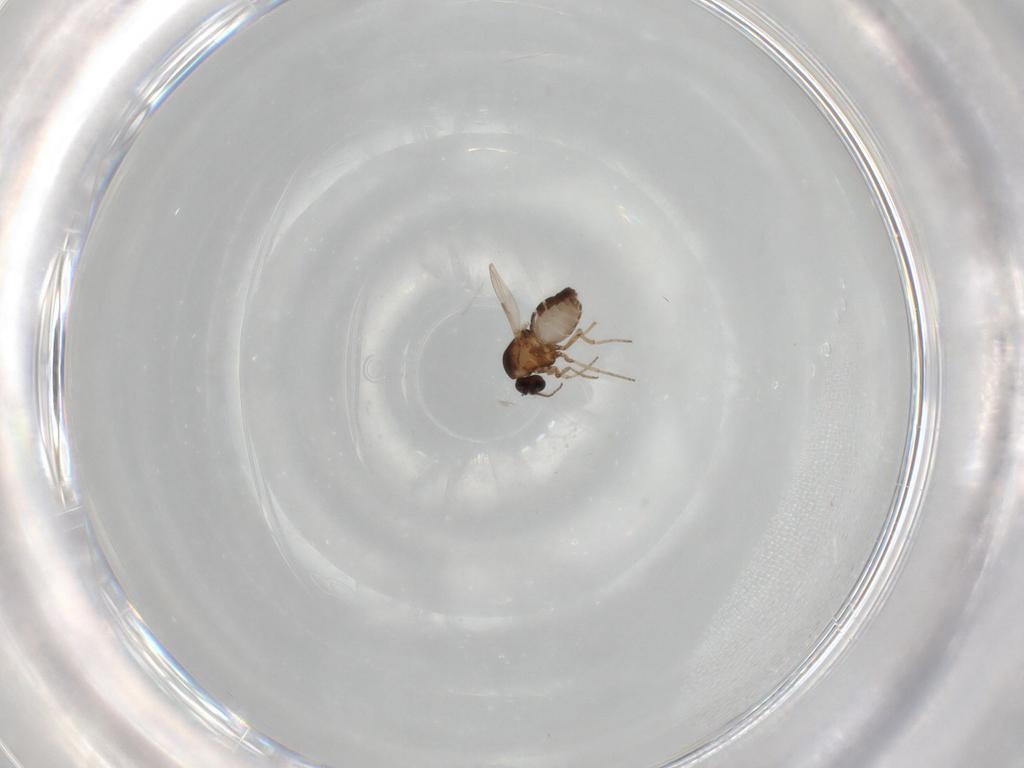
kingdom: Animalia
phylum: Arthropoda
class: Insecta
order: Diptera
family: Ceratopogonidae
